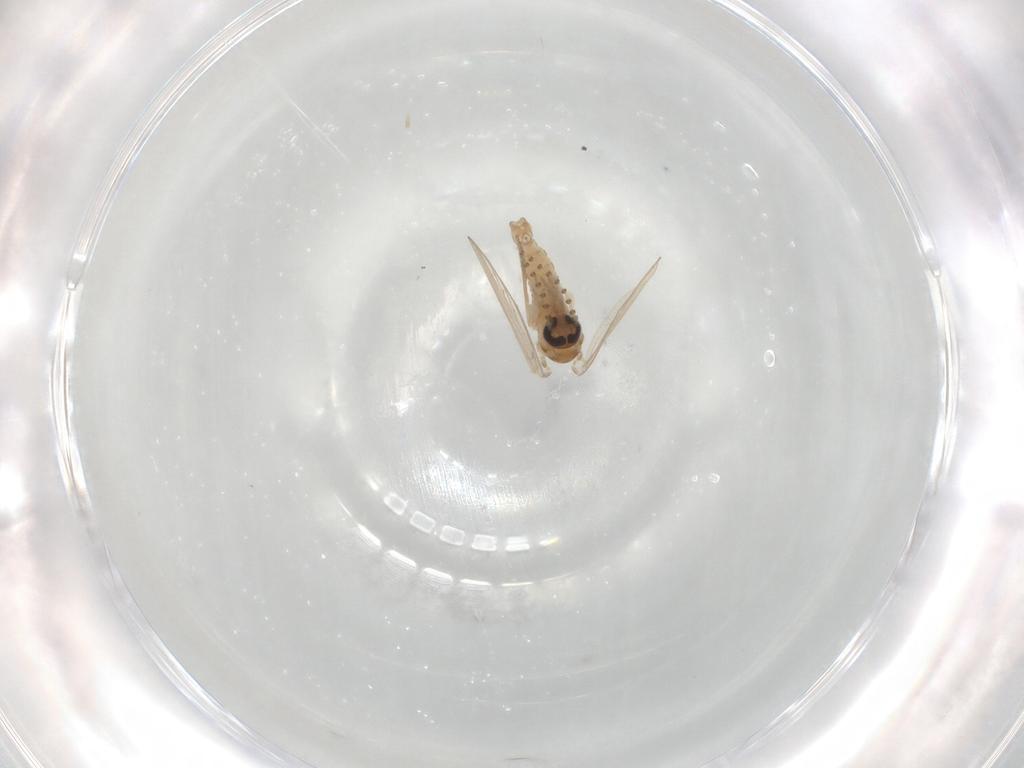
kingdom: Animalia
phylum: Arthropoda
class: Insecta
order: Diptera
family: Psychodidae
